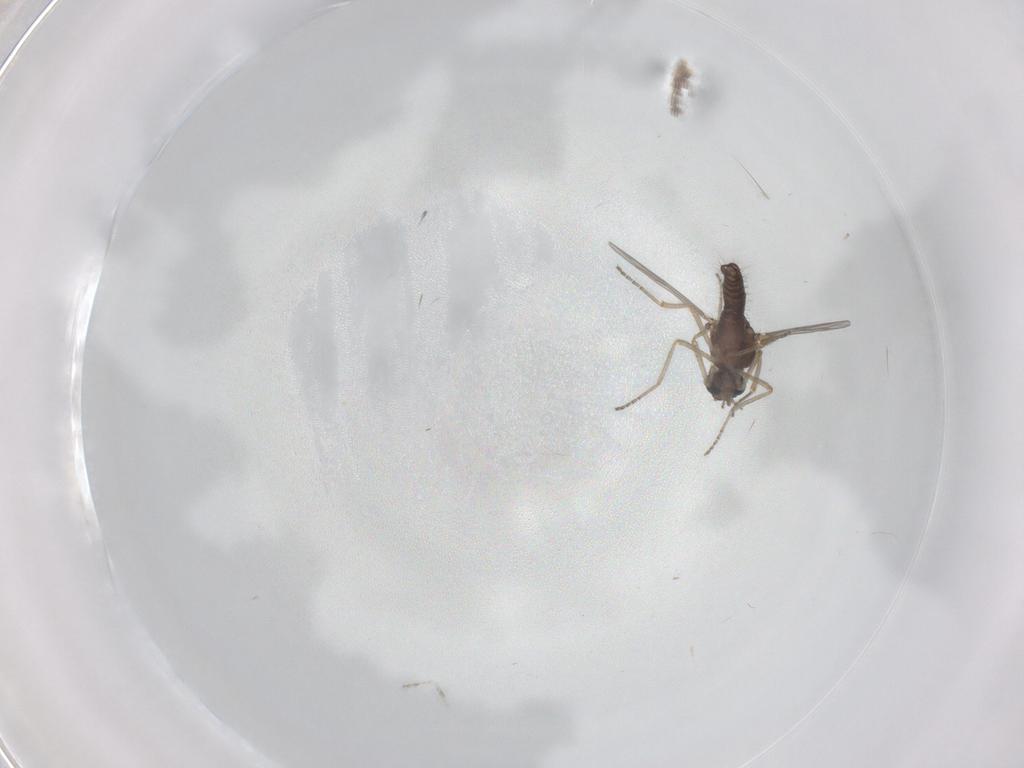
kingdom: Animalia
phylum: Arthropoda
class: Insecta
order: Diptera
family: Ceratopogonidae
